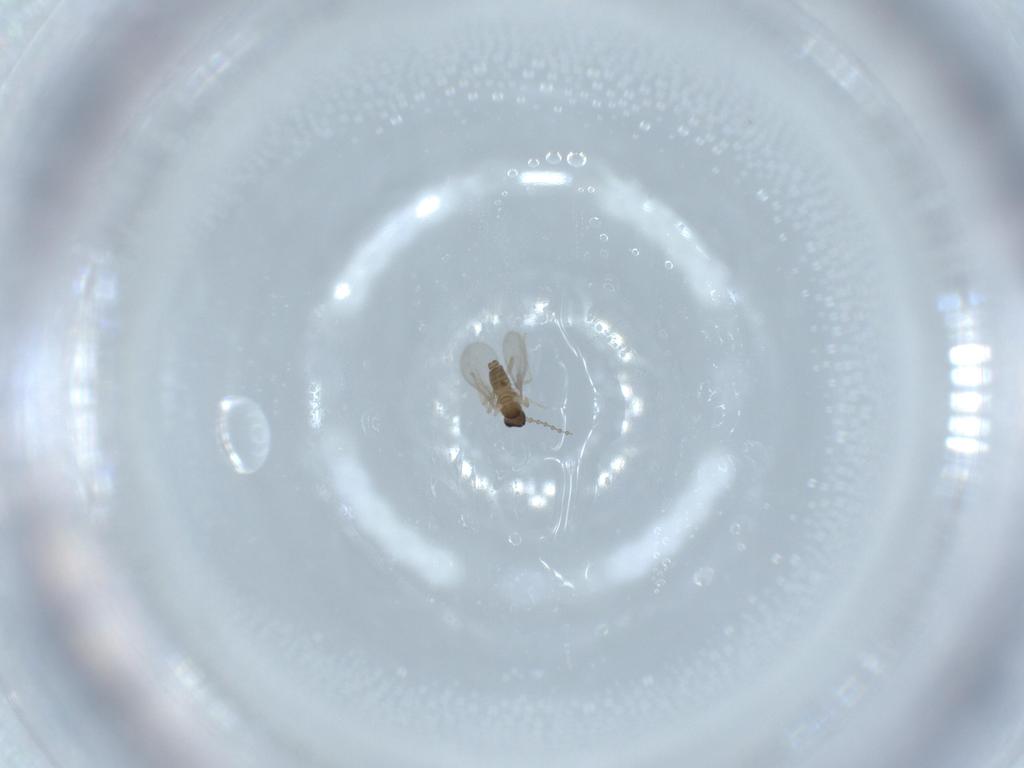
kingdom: Animalia
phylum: Arthropoda
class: Insecta
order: Diptera
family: Cecidomyiidae
